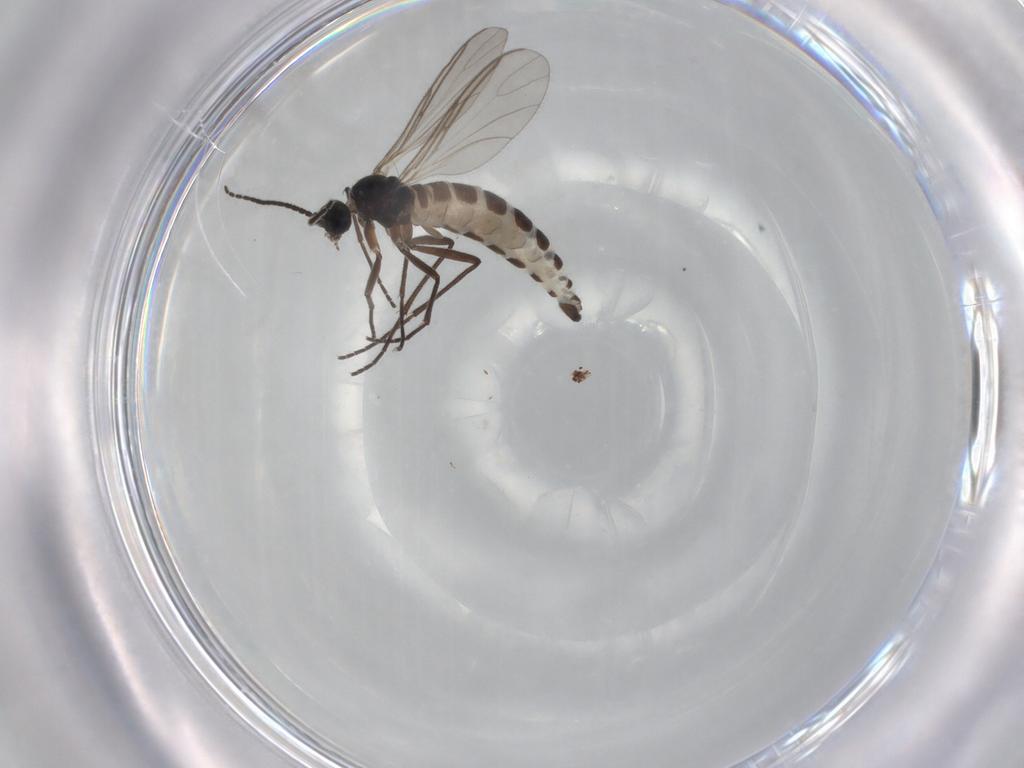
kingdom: Animalia
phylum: Arthropoda
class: Insecta
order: Diptera
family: Sciaridae
